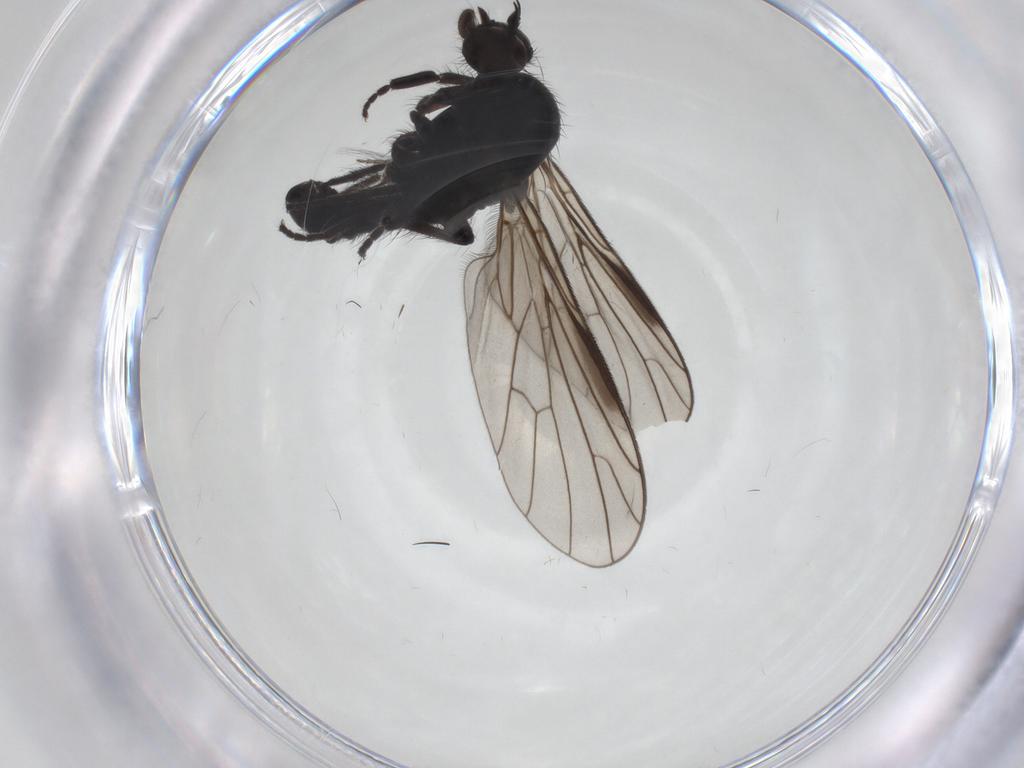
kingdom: Animalia
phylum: Arthropoda
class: Insecta
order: Diptera
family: Empididae
